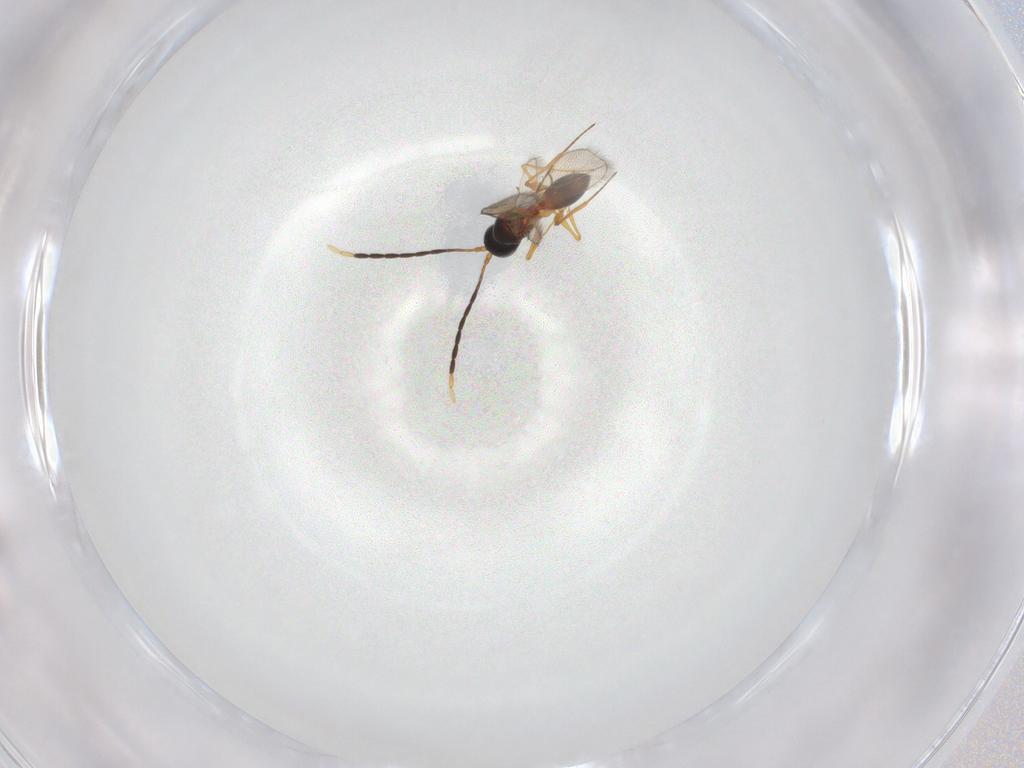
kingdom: Animalia
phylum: Arthropoda
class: Insecta
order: Hymenoptera
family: Figitidae
